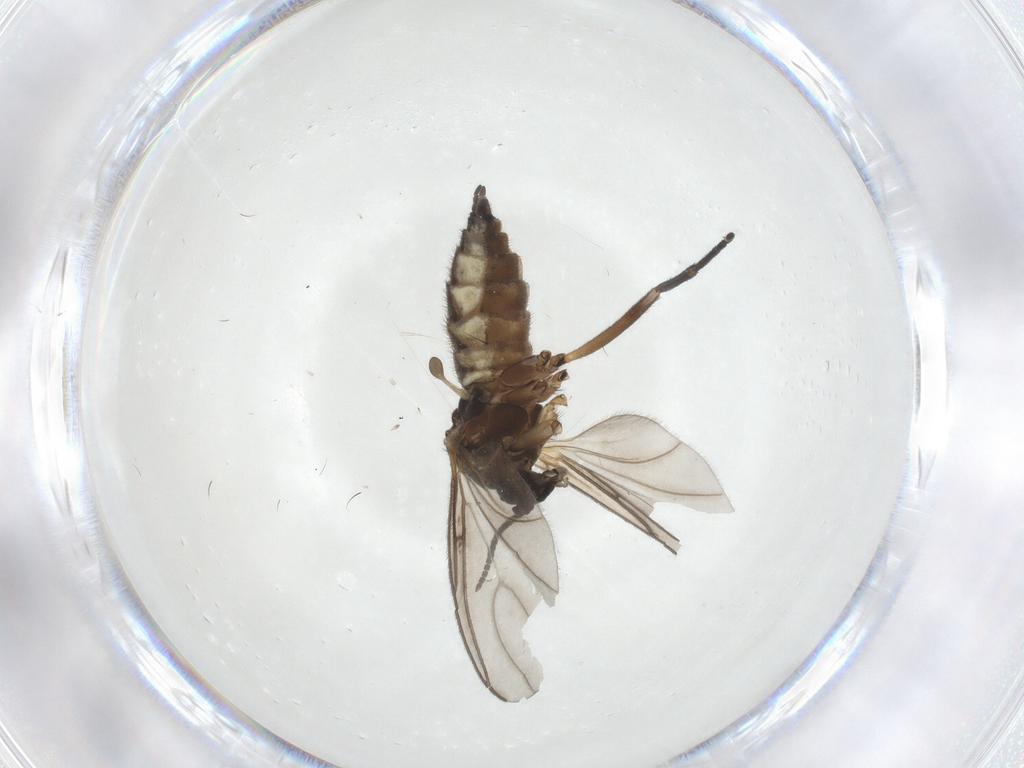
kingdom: Animalia
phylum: Arthropoda
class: Insecta
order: Diptera
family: Sciaridae
